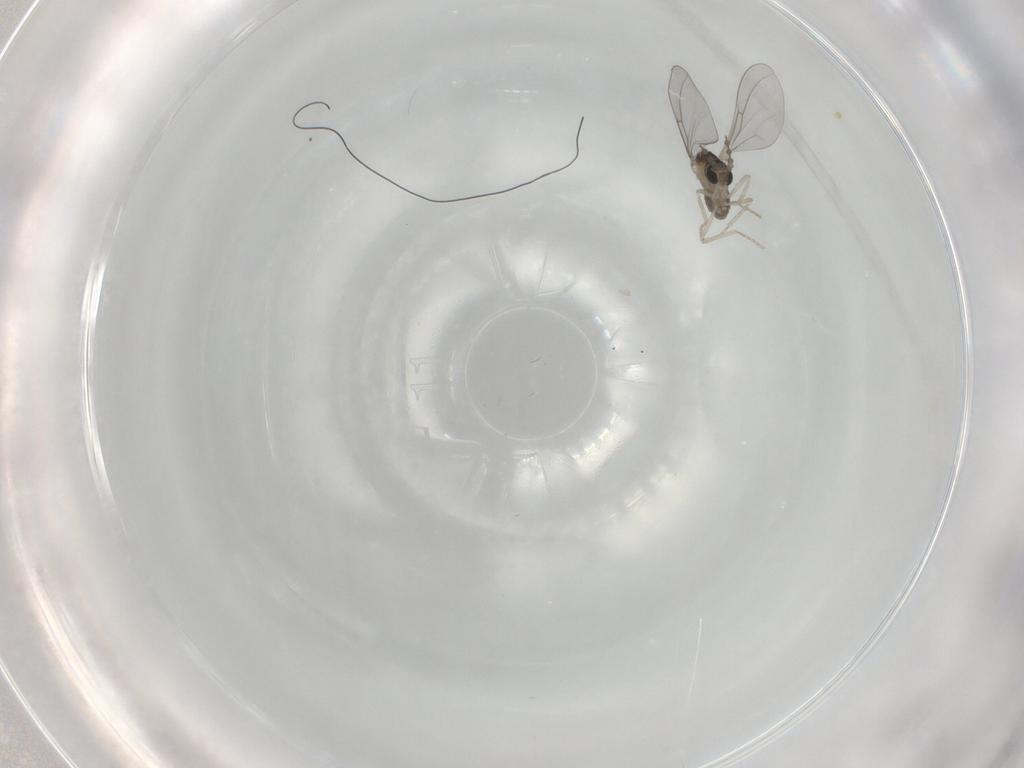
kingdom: Animalia
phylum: Arthropoda
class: Insecta
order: Diptera
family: Cecidomyiidae
